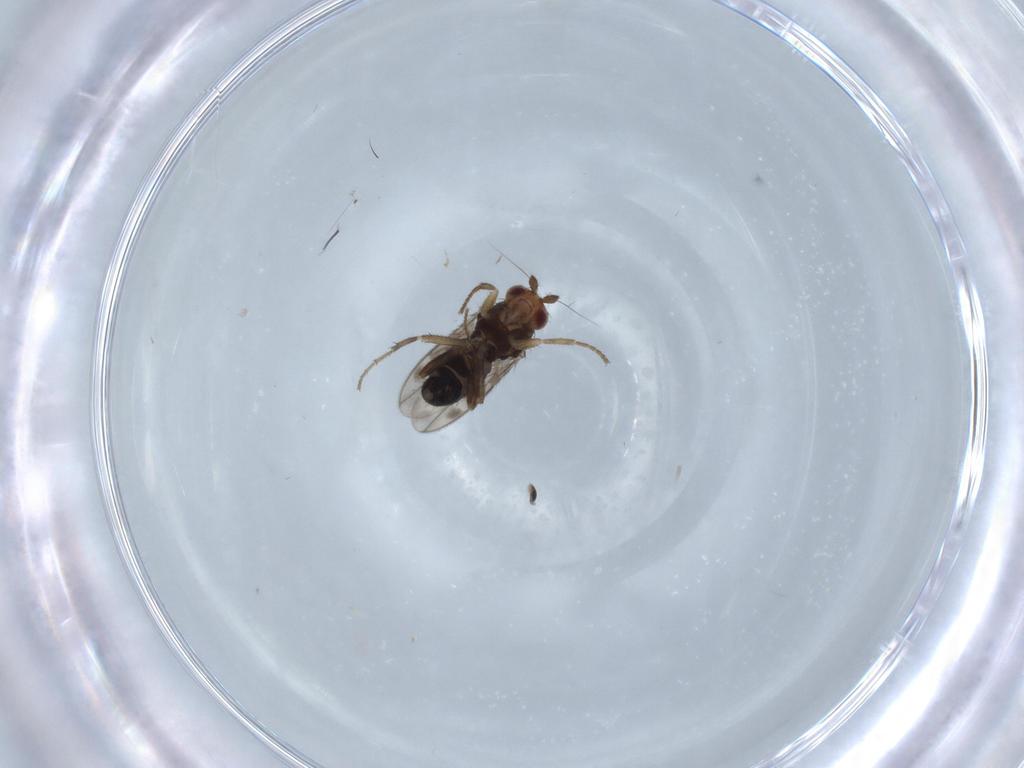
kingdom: Animalia
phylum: Arthropoda
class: Insecta
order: Diptera
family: Sphaeroceridae
